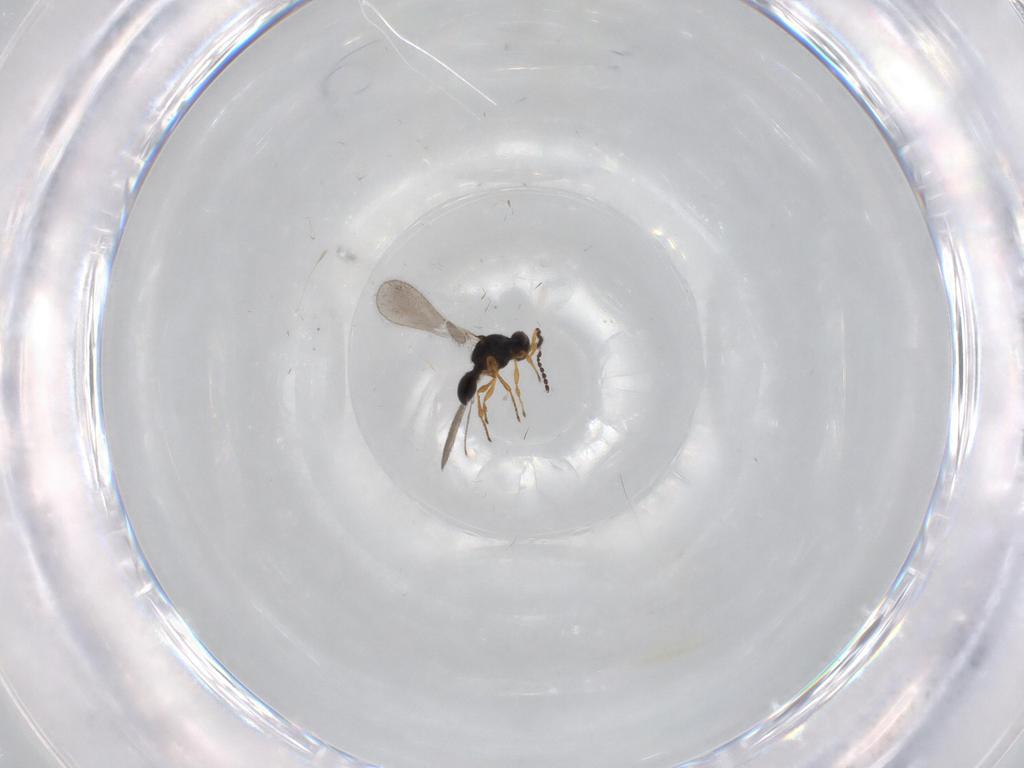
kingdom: Animalia
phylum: Arthropoda
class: Insecta
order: Hymenoptera
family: Platygastridae
